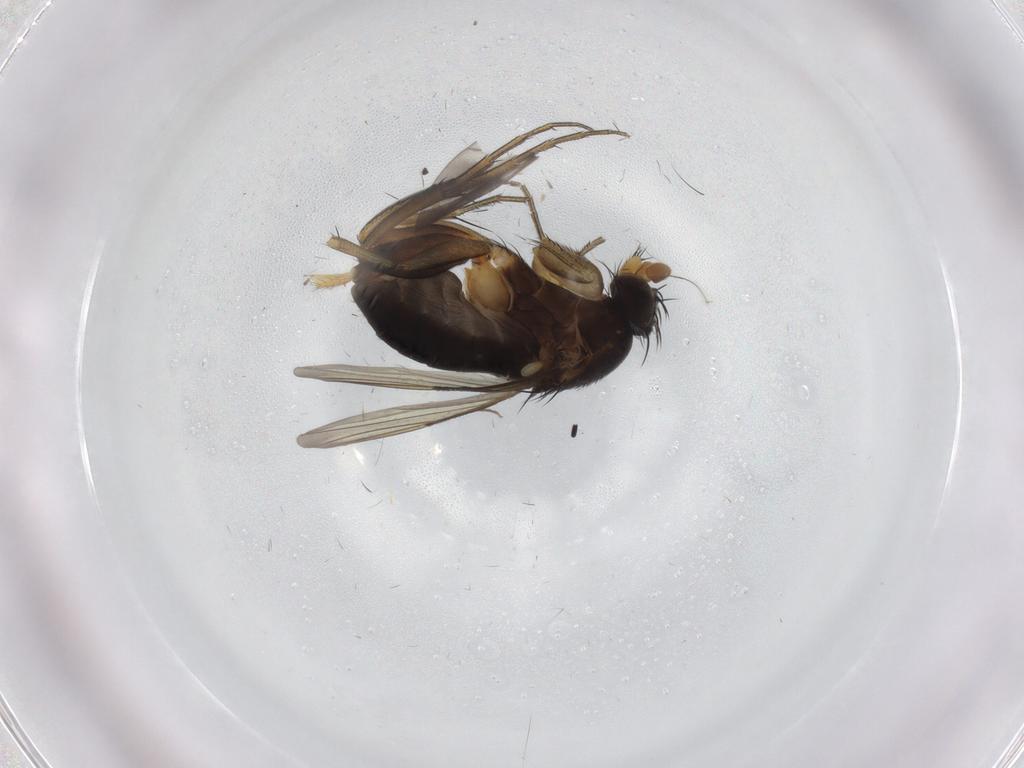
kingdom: Animalia
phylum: Arthropoda
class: Insecta
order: Diptera
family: Phoridae
